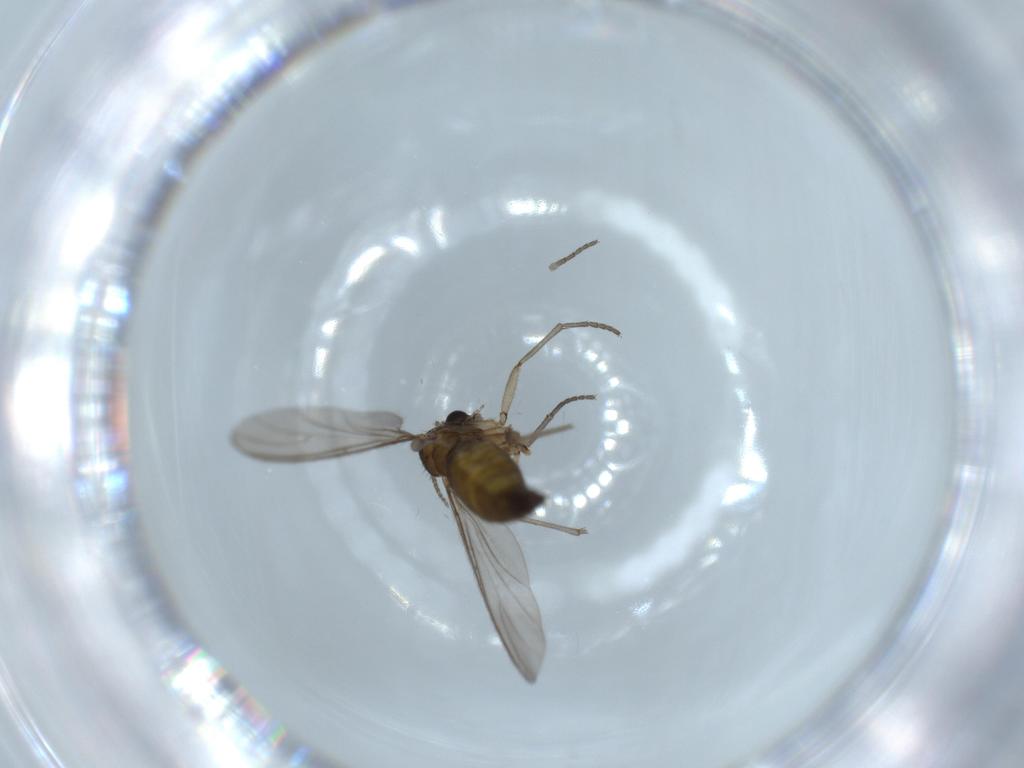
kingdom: Animalia
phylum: Arthropoda
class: Insecta
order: Diptera
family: Sciaridae
